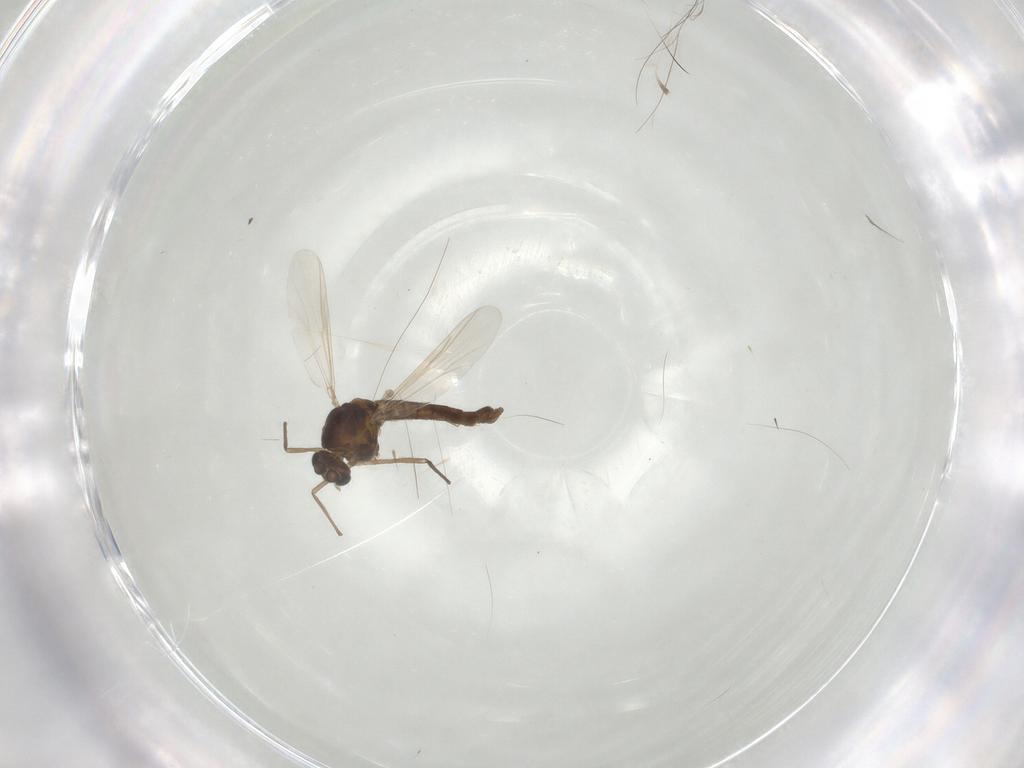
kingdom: Animalia
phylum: Arthropoda
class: Insecta
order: Diptera
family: Chironomidae
